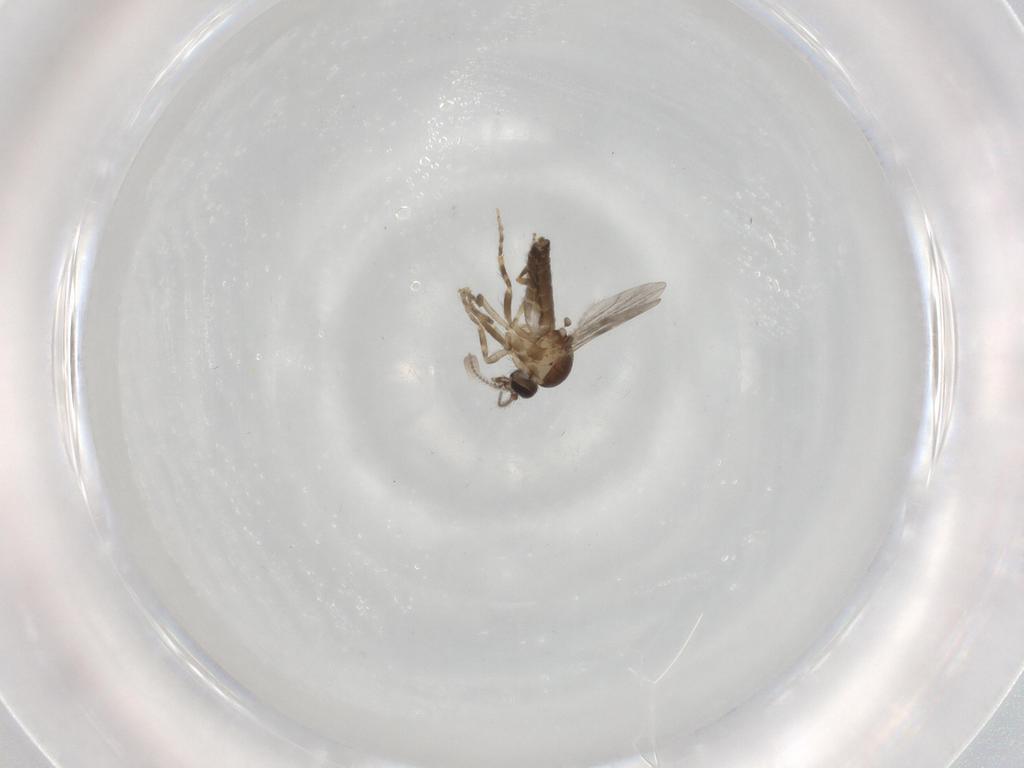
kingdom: Animalia
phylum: Arthropoda
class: Insecta
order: Diptera
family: Ceratopogonidae
